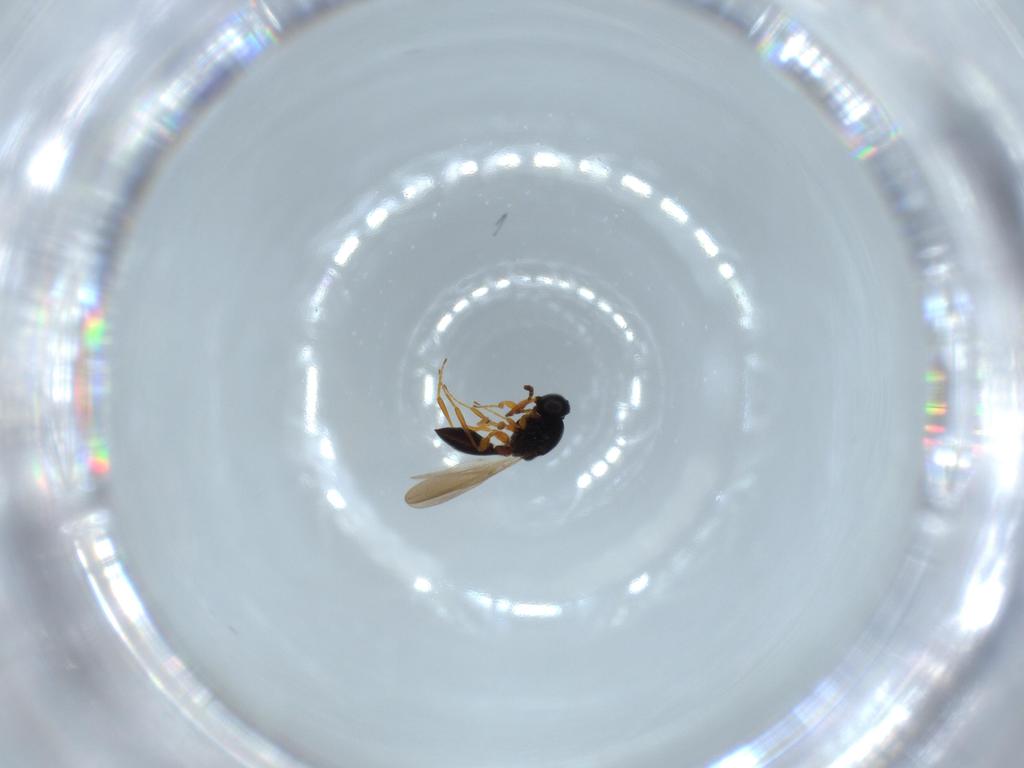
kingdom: Animalia
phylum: Arthropoda
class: Insecta
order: Hymenoptera
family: Platygastridae
